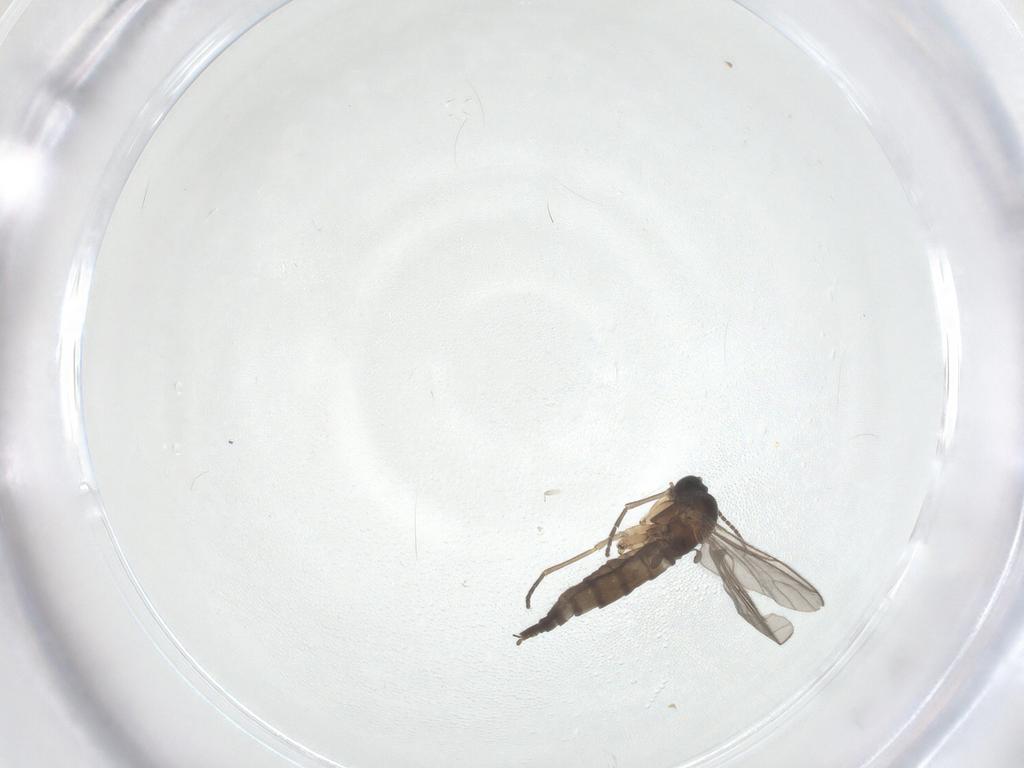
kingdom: Animalia
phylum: Arthropoda
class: Insecta
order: Diptera
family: Sciaridae
